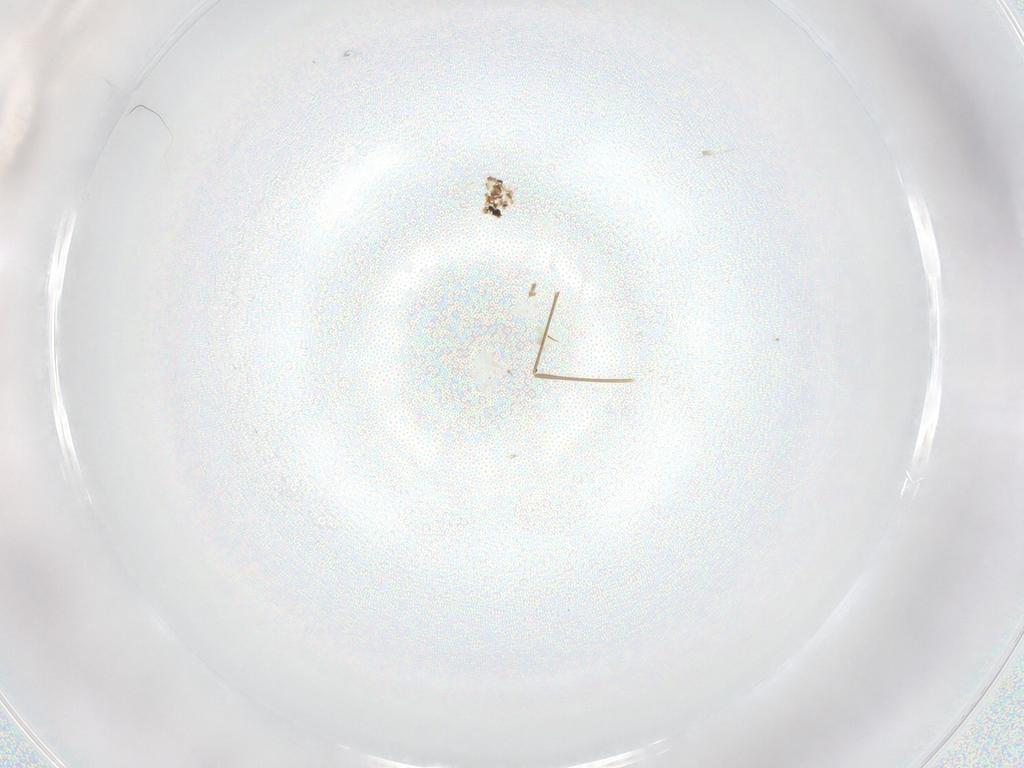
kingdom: Animalia
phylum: Arthropoda
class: Insecta
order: Diptera
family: Cecidomyiidae
